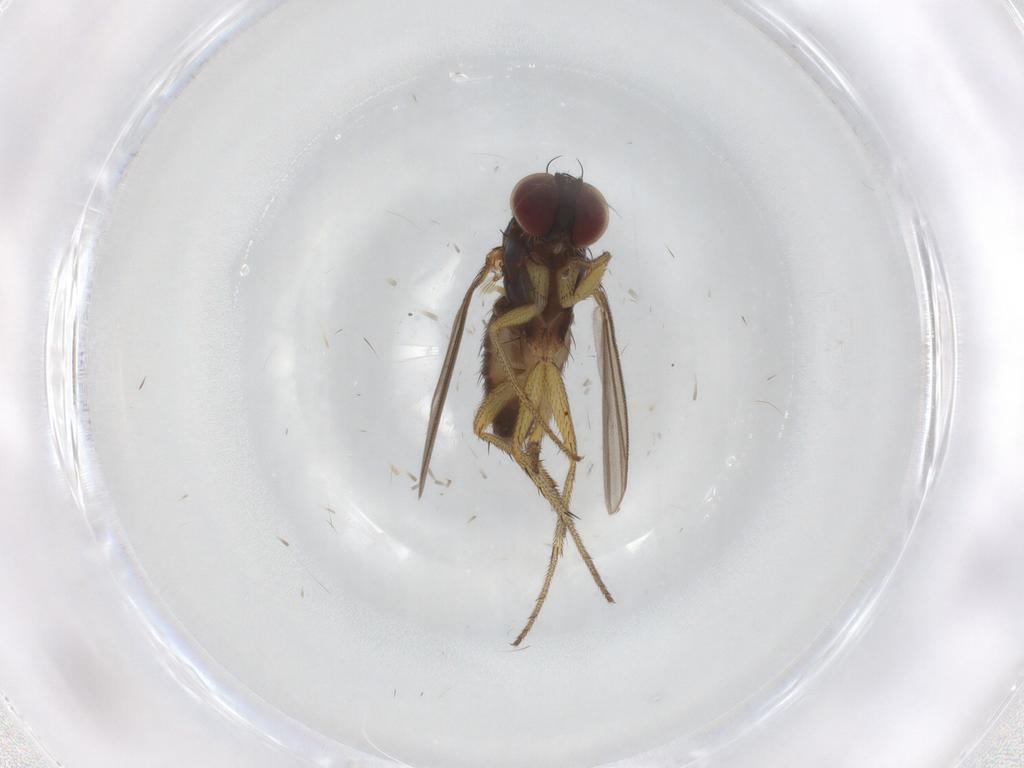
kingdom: Animalia
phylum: Arthropoda
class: Insecta
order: Diptera
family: Dolichopodidae
